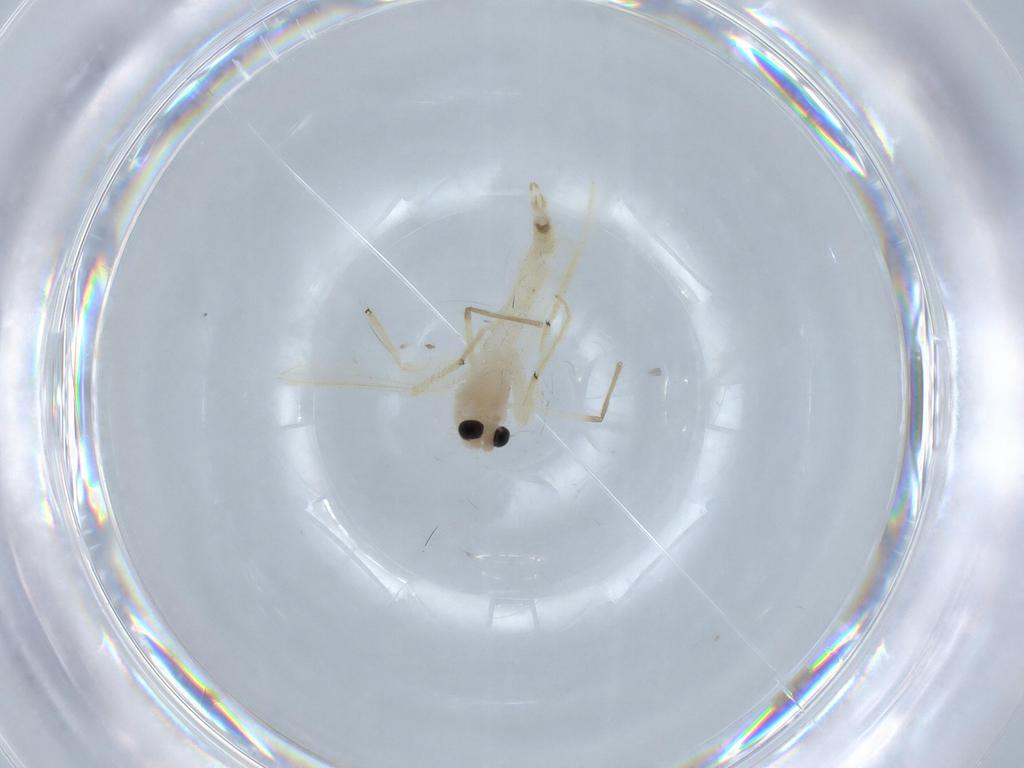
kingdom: Animalia
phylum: Arthropoda
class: Insecta
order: Diptera
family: Chironomidae
